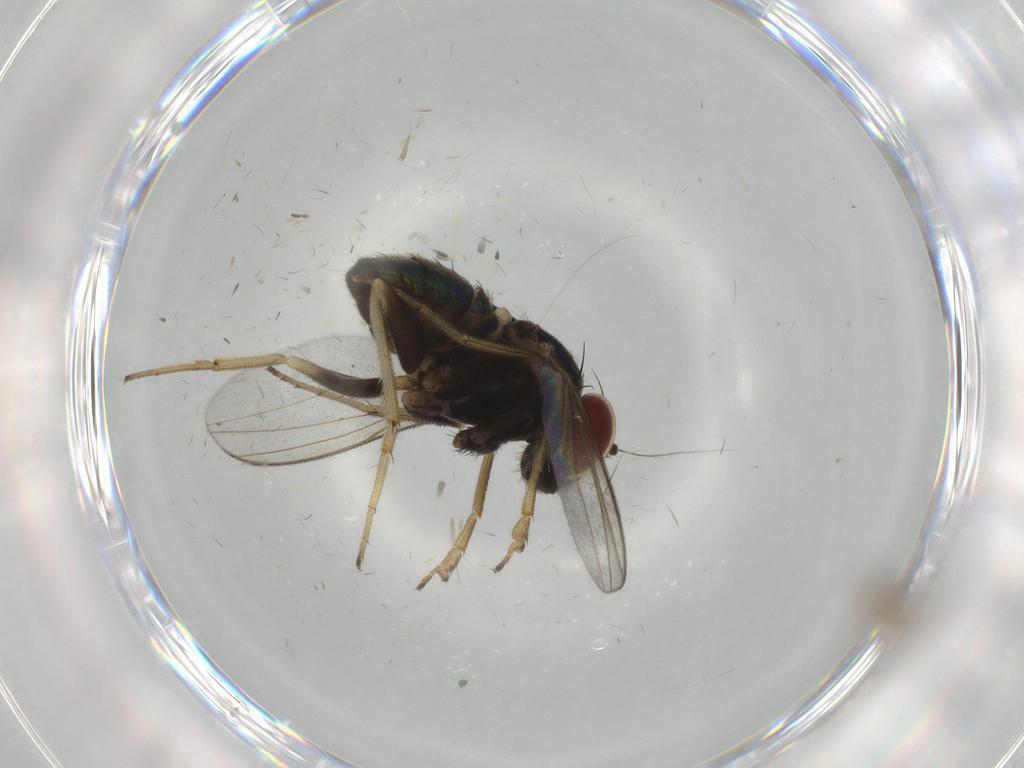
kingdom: Animalia
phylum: Arthropoda
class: Insecta
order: Diptera
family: Dolichopodidae
